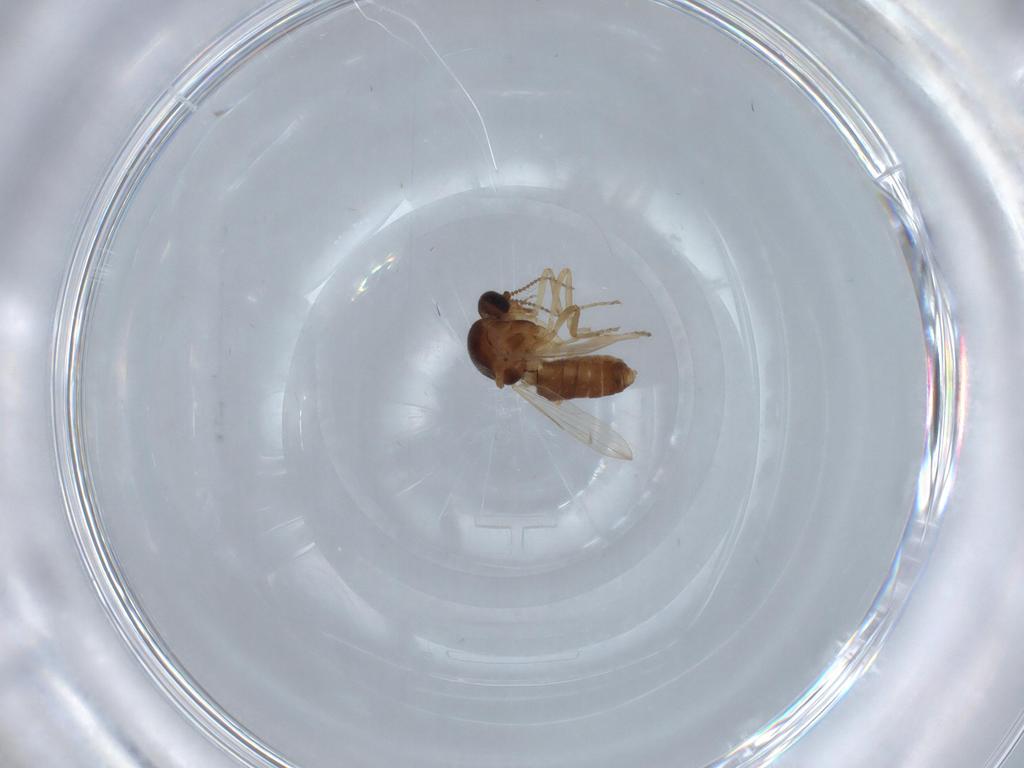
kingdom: Animalia
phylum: Arthropoda
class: Insecta
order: Diptera
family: Ceratopogonidae
